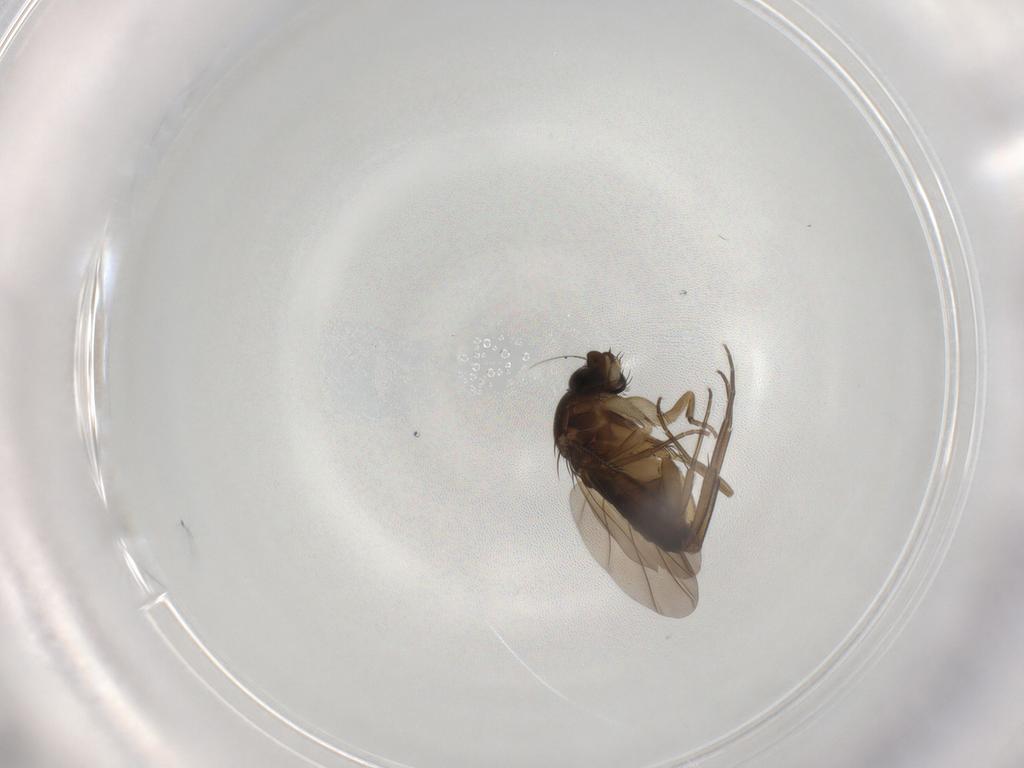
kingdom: Animalia
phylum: Arthropoda
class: Insecta
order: Diptera
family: Phoridae
